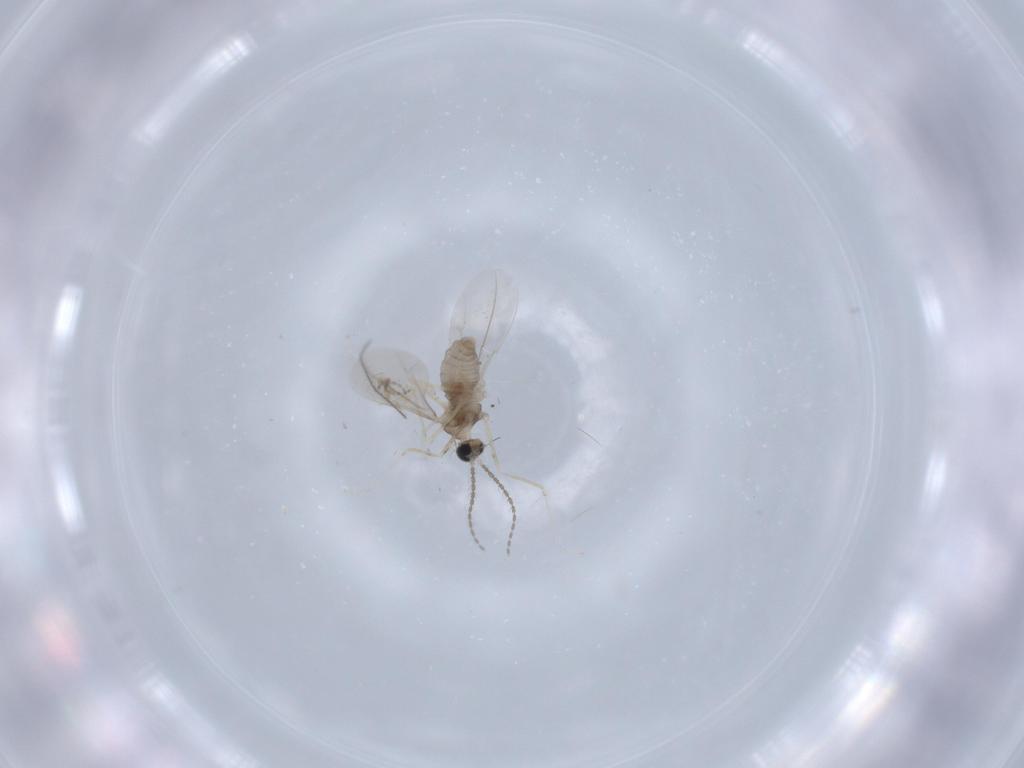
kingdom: Animalia
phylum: Arthropoda
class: Insecta
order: Diptera
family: Cecidomyiidae
